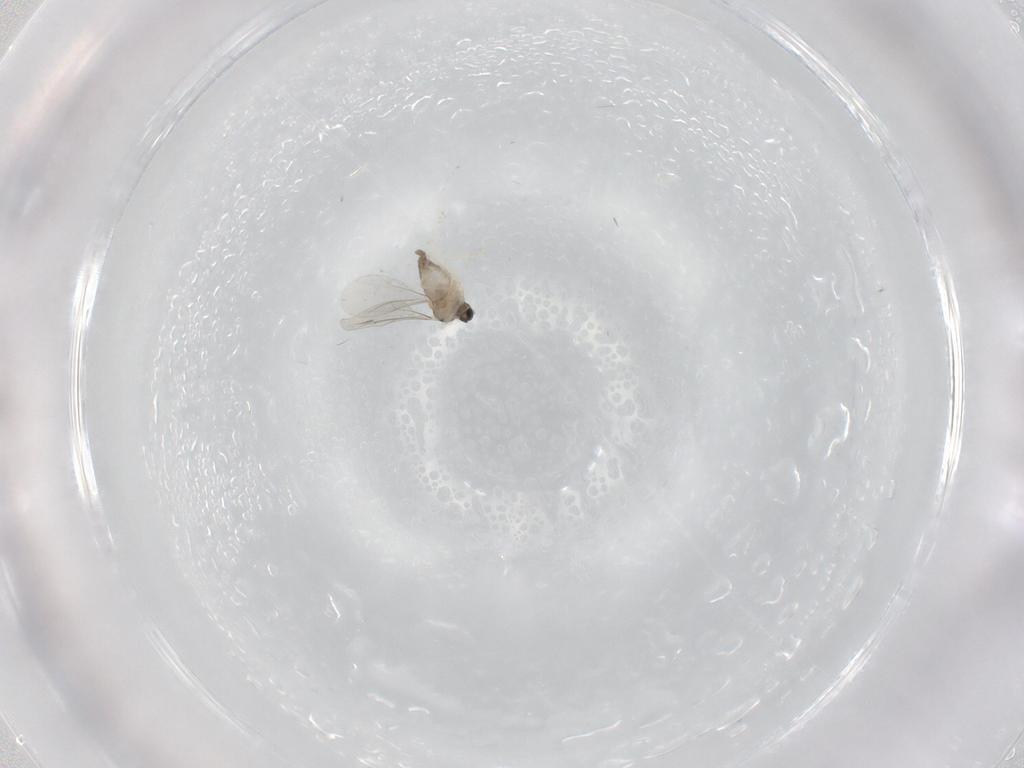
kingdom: Animalia
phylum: Arthropoda
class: Insecta
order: Diptera
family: Cecidomyiidae
